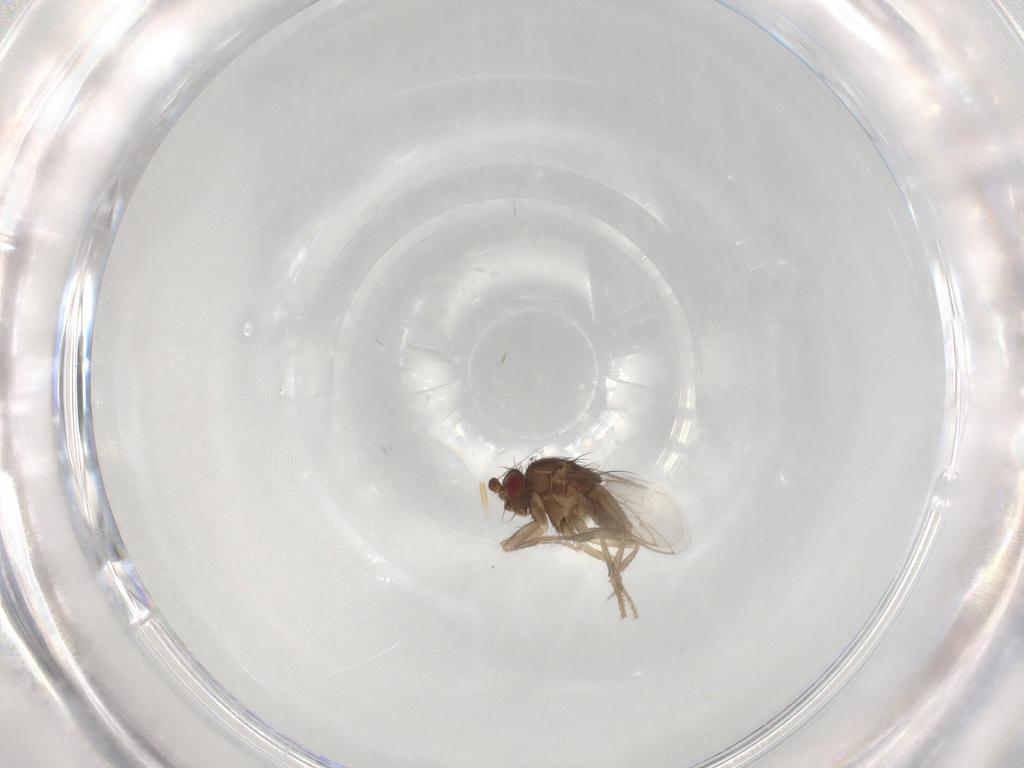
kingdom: Animalia
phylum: Arthropoda
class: Insecta
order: Diptera
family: Sphaeroceridae
